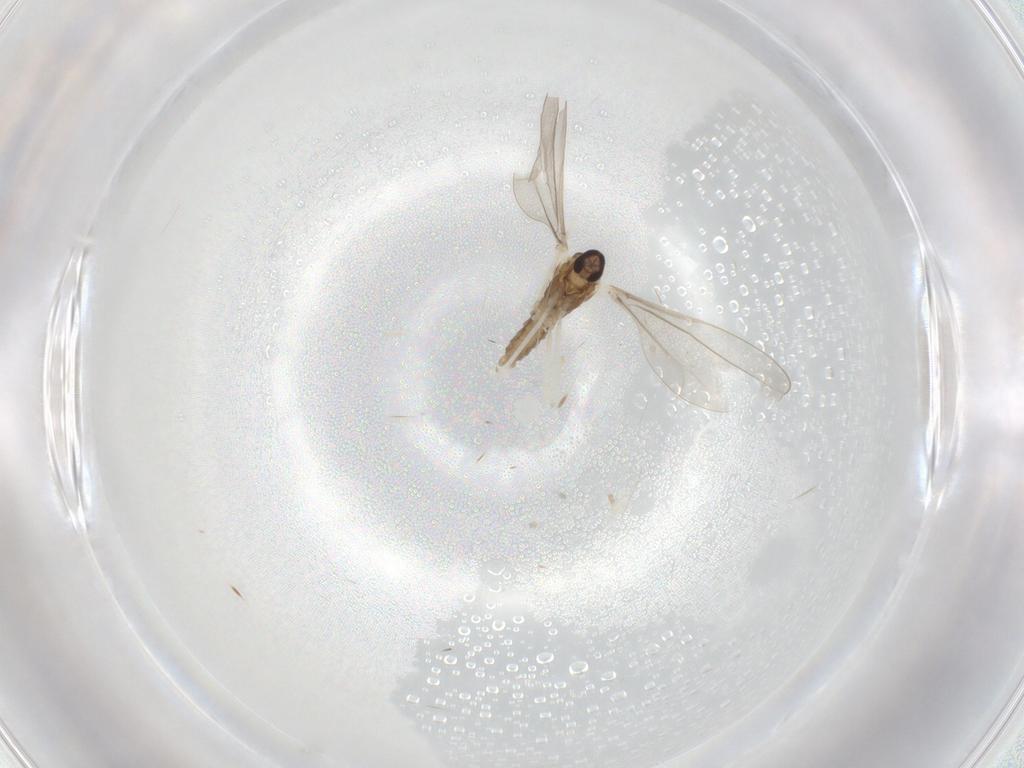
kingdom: Animalia
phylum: Arthropoda
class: Insecta
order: Diptera
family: Cecidomyiidae
